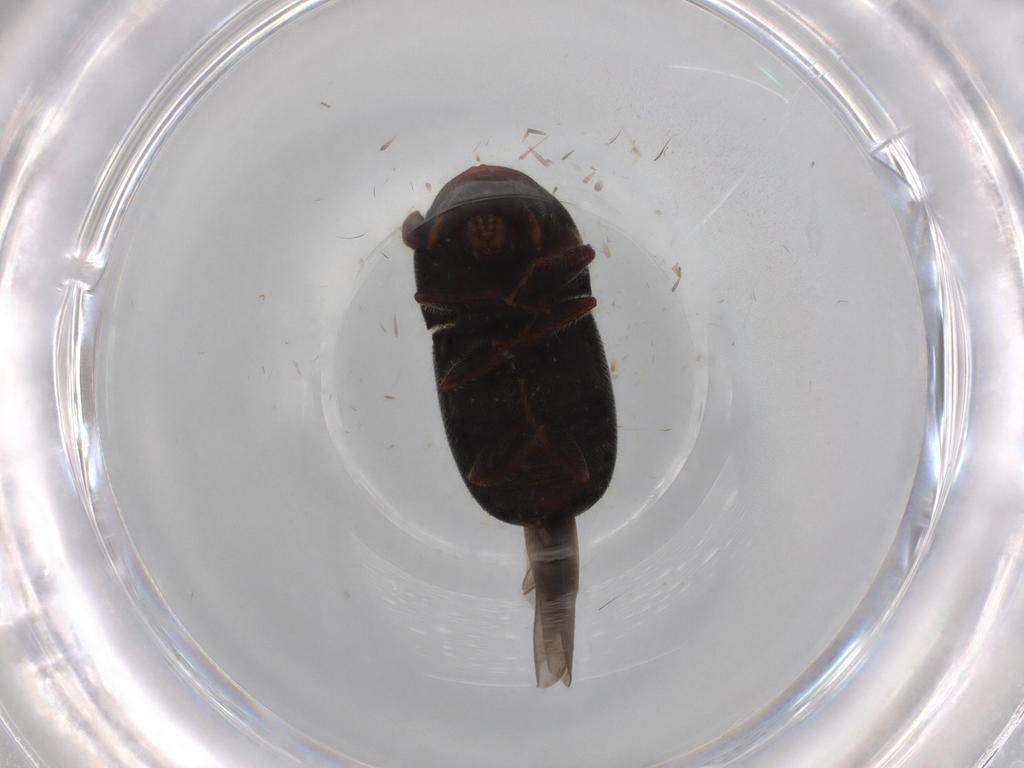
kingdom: Animalia
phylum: Arthropoda
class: Insecta
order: Coleoptera
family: Curculionidae
